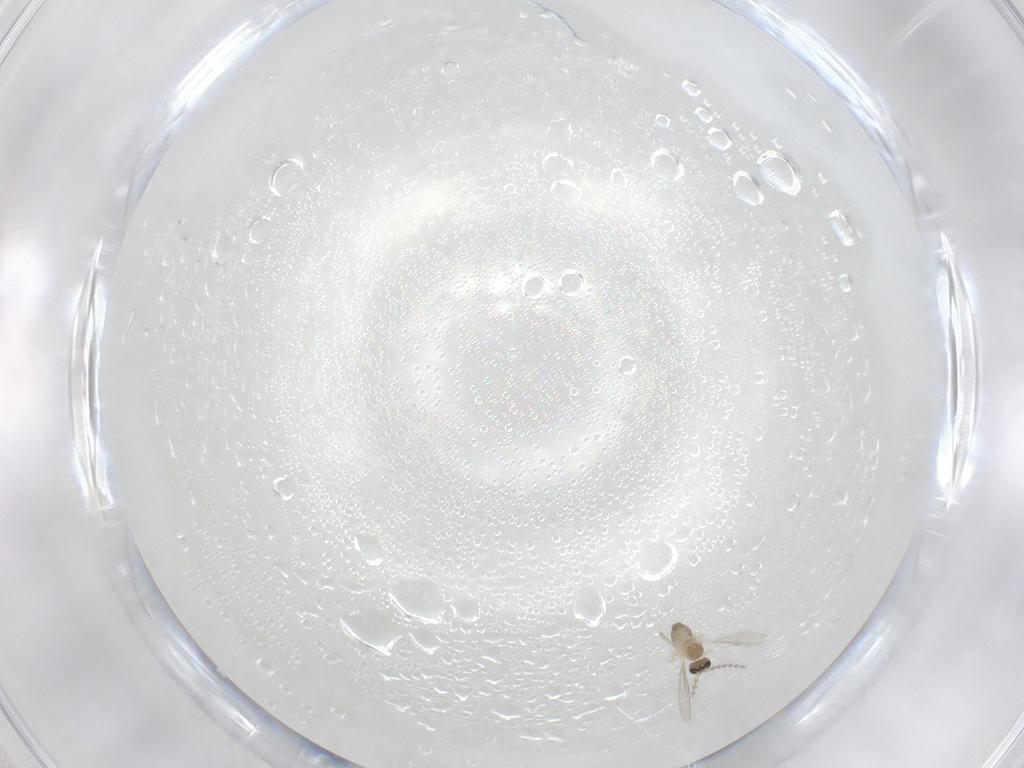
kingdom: Animalia
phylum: Arthropoda
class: Insecta
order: Diptera
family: Cecidomyiidae
